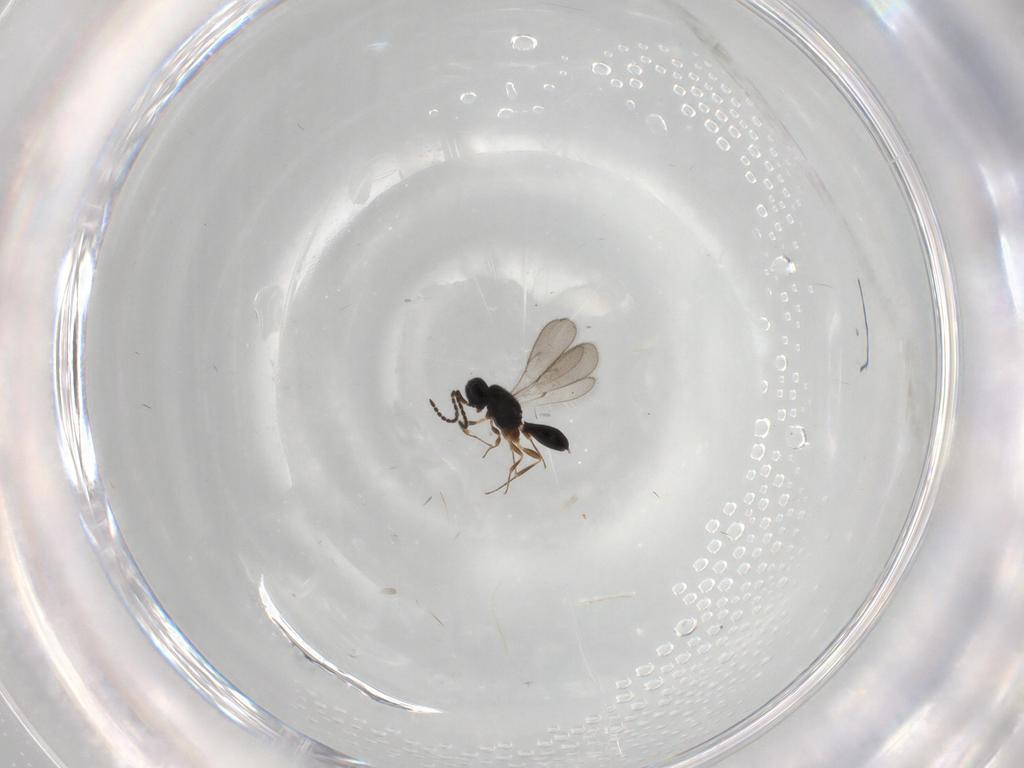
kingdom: Animalia
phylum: Arthropoda
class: Insecta
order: Hymenoptera
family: Scelionidae
